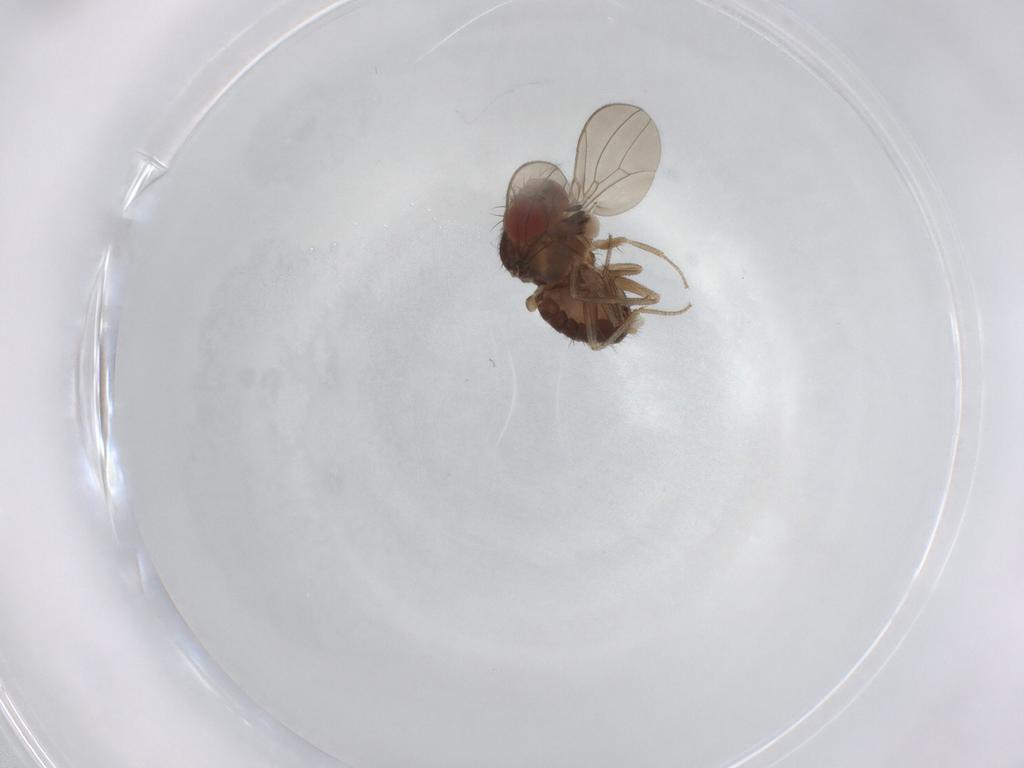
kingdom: Animalia
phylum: Arthropoda
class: Insecta
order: Diptera
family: Drosophilidae
